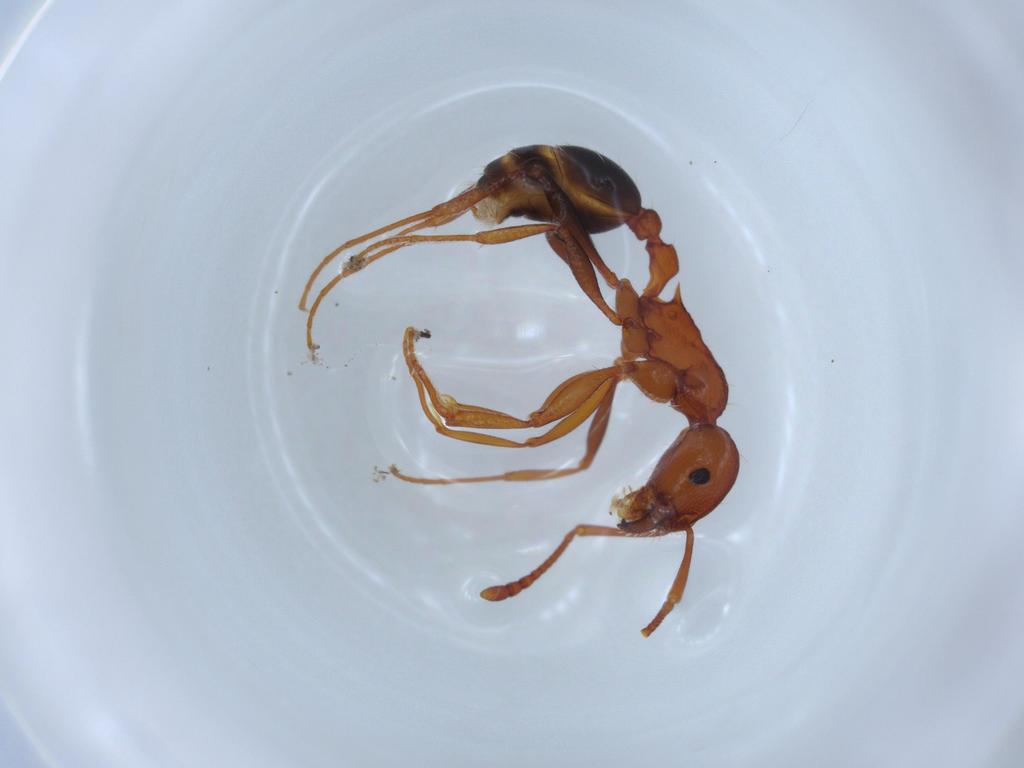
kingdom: Animalia
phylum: Arthropoda
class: Insecta
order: Hymenoptera
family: Formicidae
